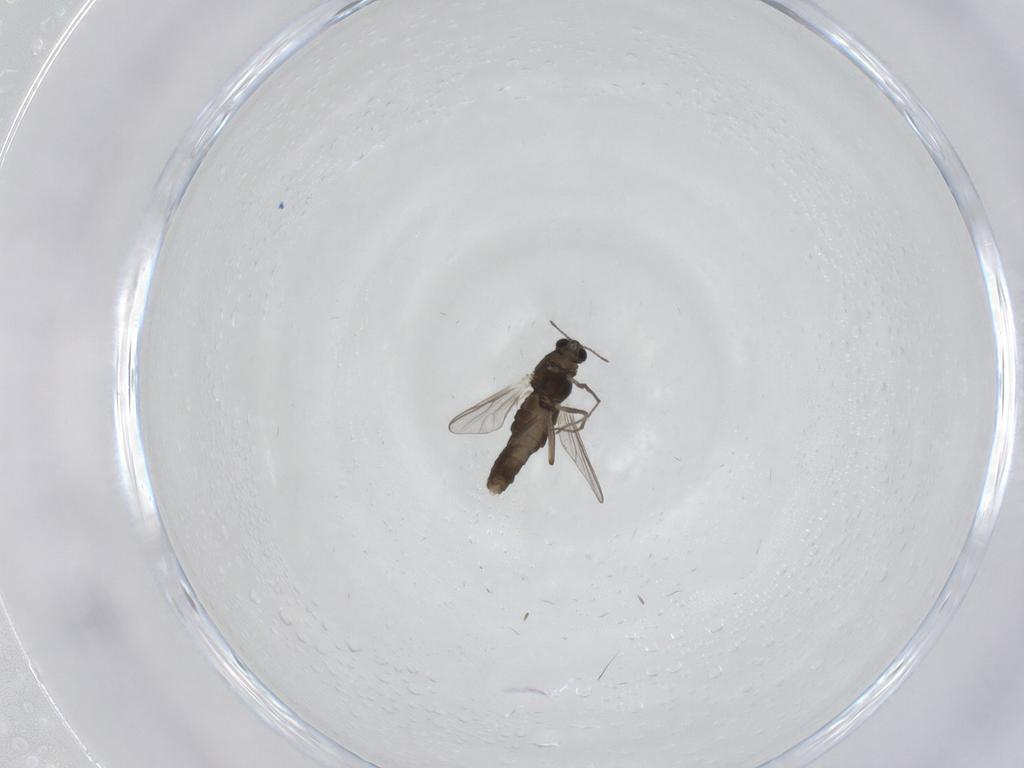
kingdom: Animalia
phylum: Arthropoda
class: Insecta
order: Diptera
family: Chironomidae
